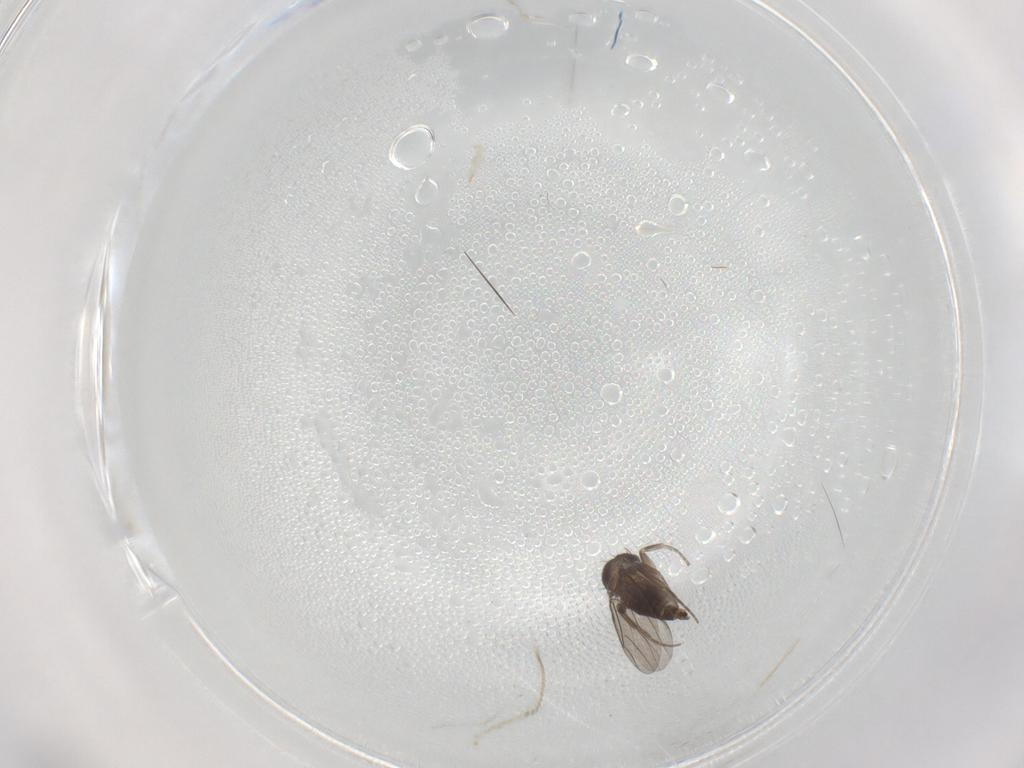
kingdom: Animalia
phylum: Arthropoda
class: Insecta
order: Diptera
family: Phoridae
